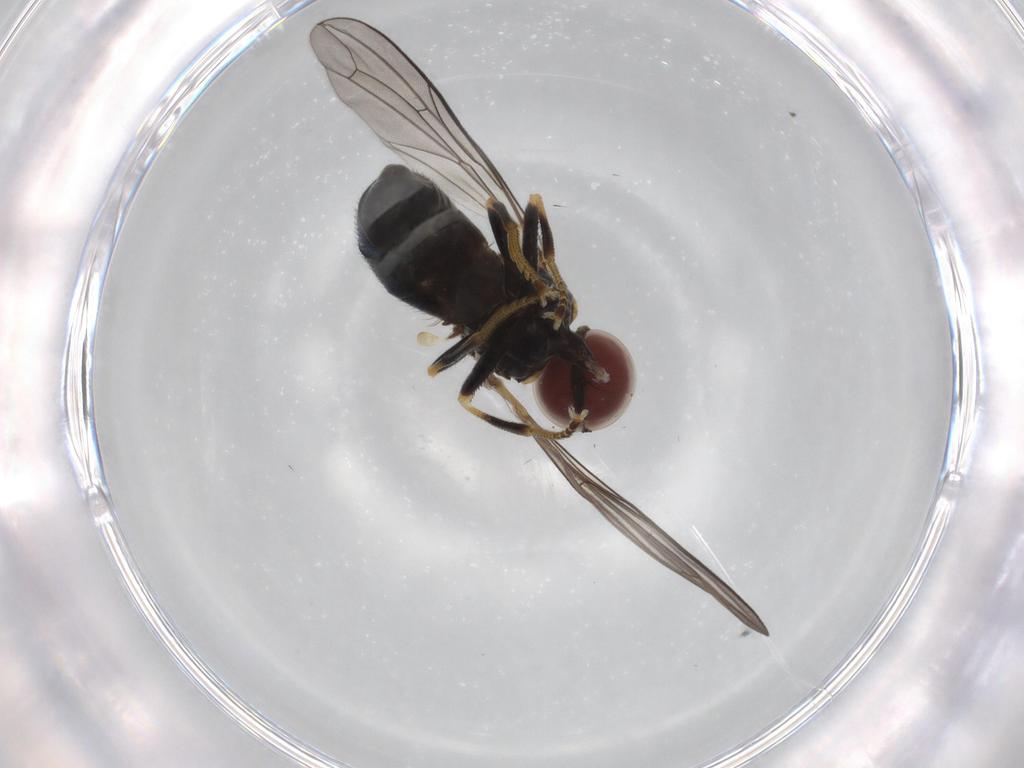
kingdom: Animalia
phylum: Arthropoda
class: Insecta
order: Diptera
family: Pipunculidae
